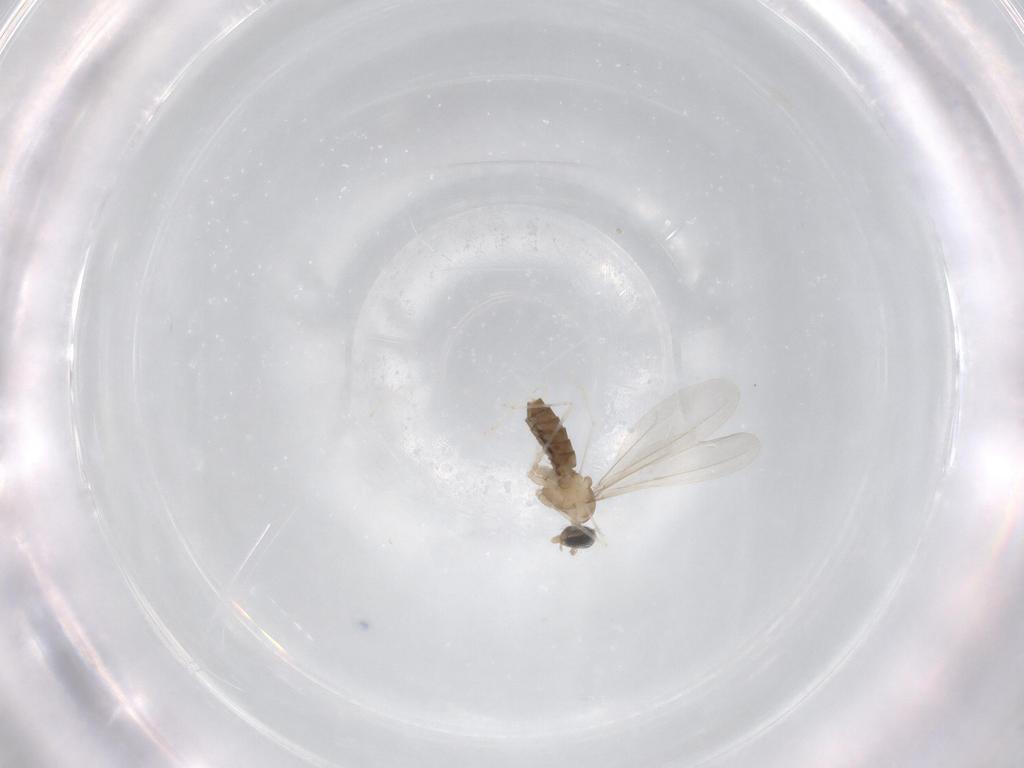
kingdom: Animalia
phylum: Arthropoda
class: Insecta
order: Diptera
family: Cecidomyiidae
